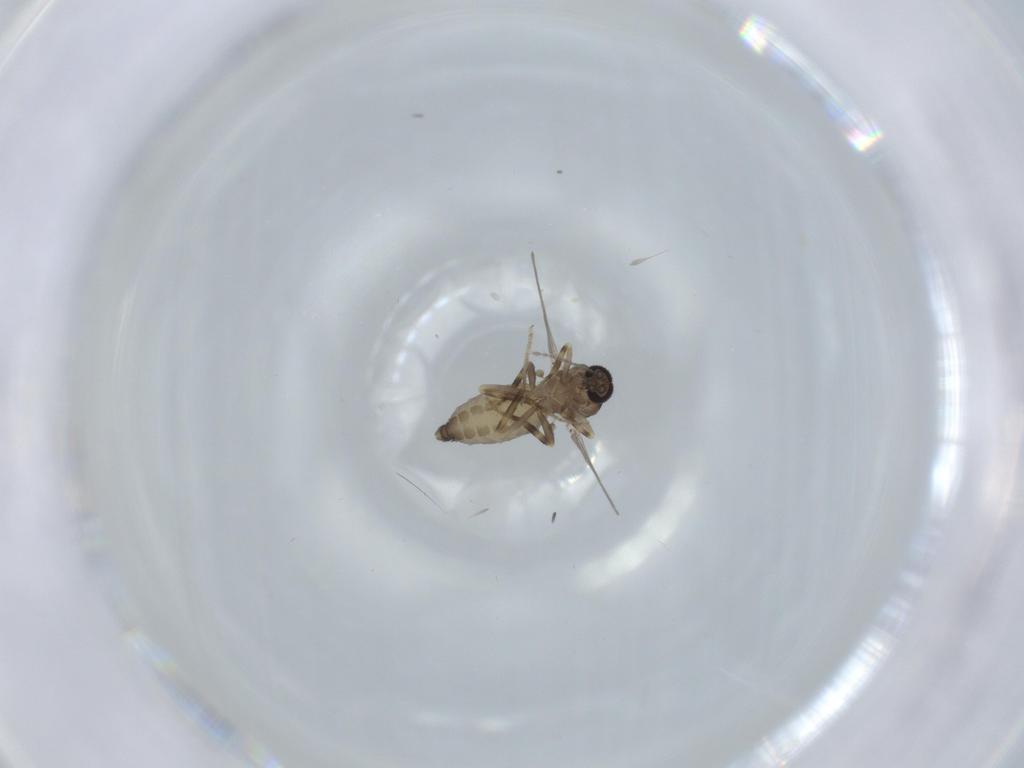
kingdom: Animalia
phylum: Arthropoda
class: Insecta
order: Diptera
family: Ceratopogonidae
